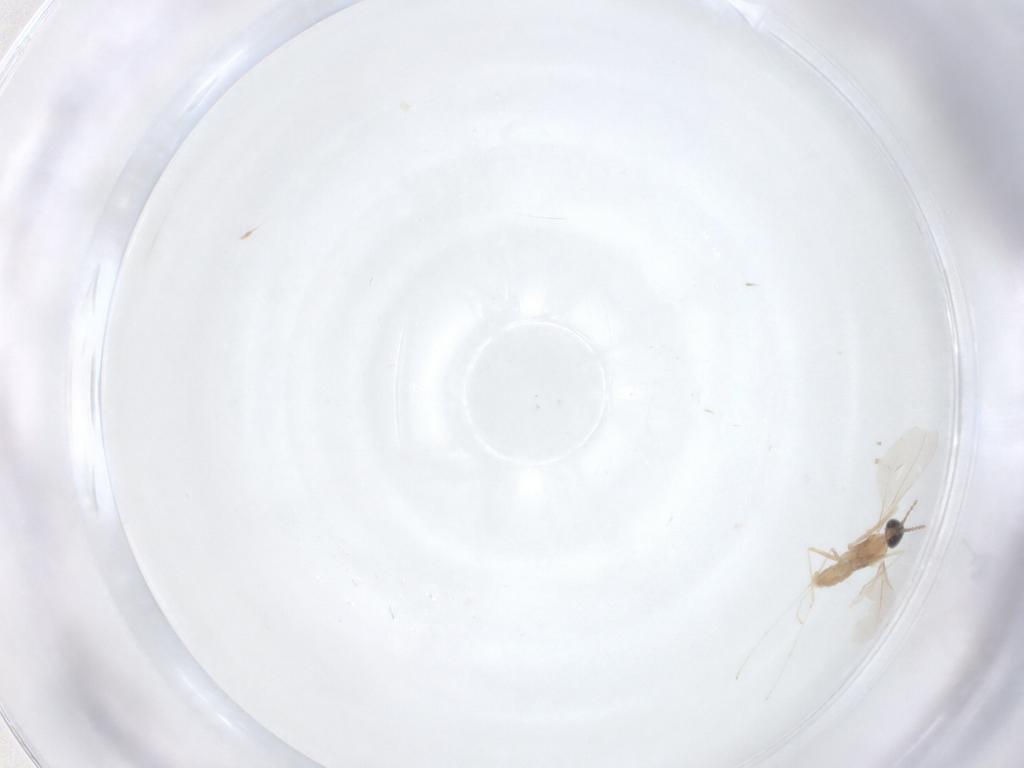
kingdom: Animalia
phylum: Arthropoda
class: Insecta
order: Diptera
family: Limoniidae
